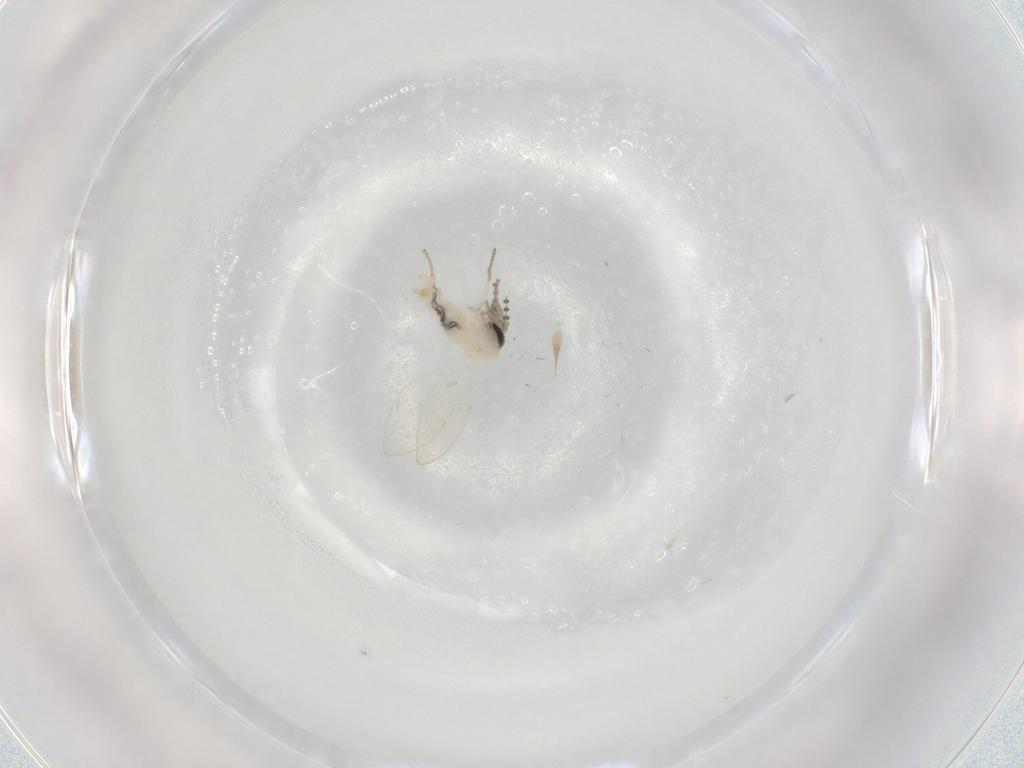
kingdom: Animalia
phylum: Arthropoda
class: Insecta
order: Diptera
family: Psychodidae
